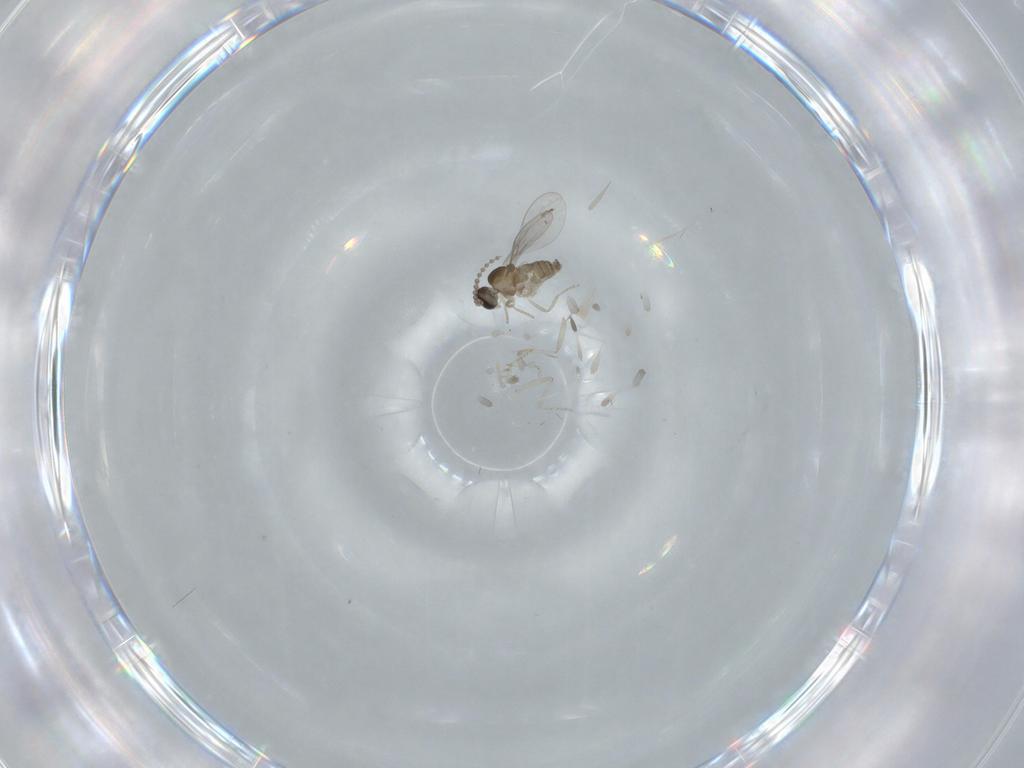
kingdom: Animalia
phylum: Arthropoda
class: Insecta
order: Diptera
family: Cecidomyiidae
